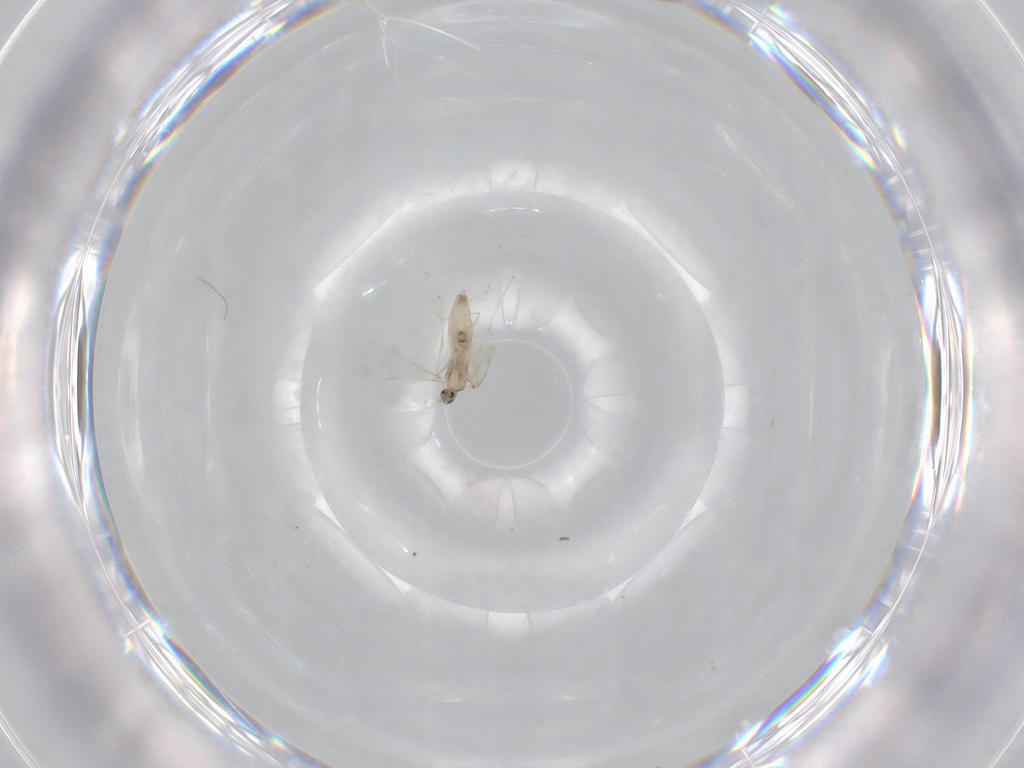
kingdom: Animalia
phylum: Arthropoda
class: Insecta
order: Diptera
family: Cecidomyiidae
